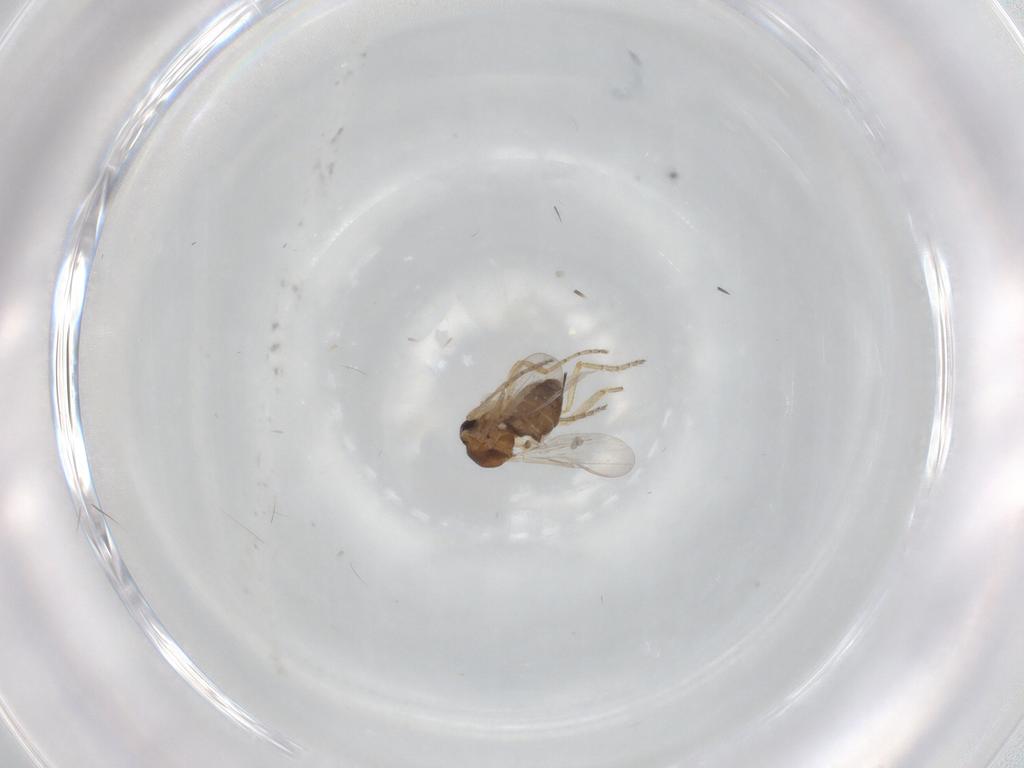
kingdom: Animalia
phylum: Arthropoda
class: Insecta
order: Diptera
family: Ceratopogonidae
